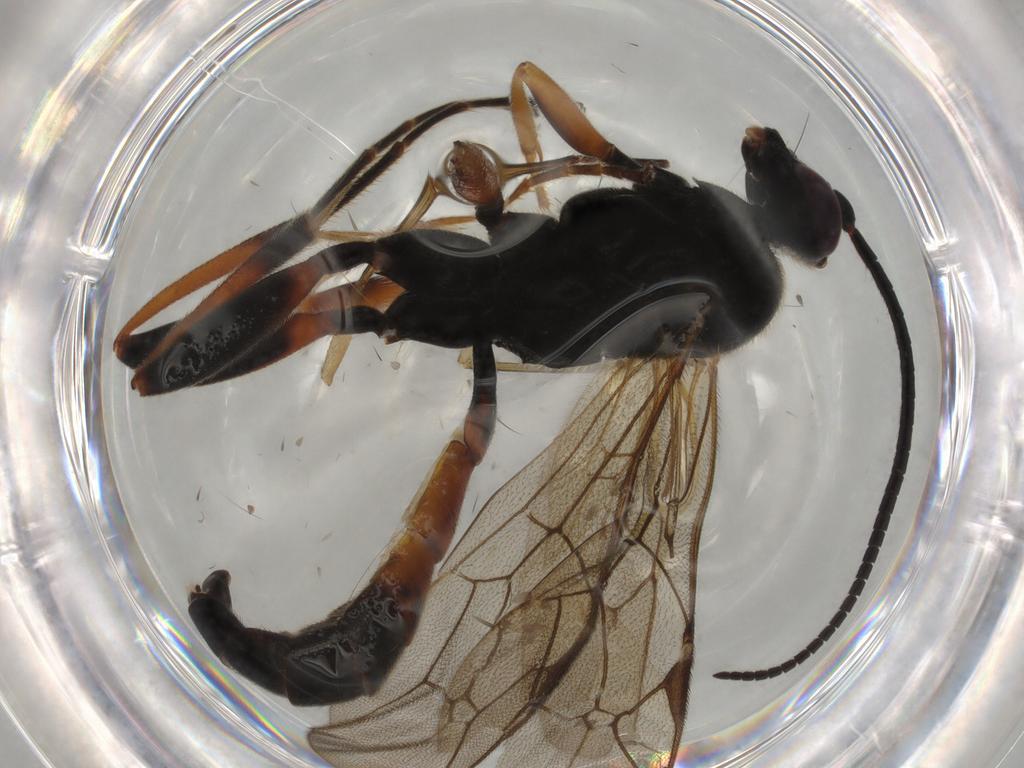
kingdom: Animalia
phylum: Arthropoda
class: Insecta
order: Hymenoptera
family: Ichneumonidae
